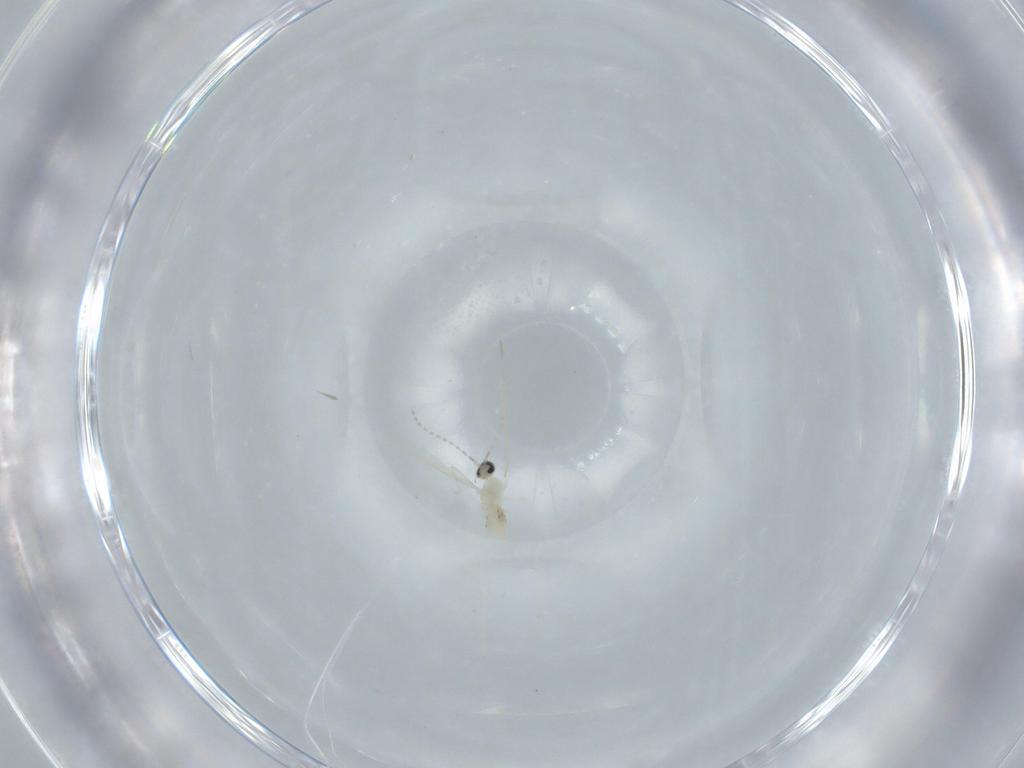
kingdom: Animalia
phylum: Arthropoda
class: Insecta
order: Diptera
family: Cecidomyiidae
